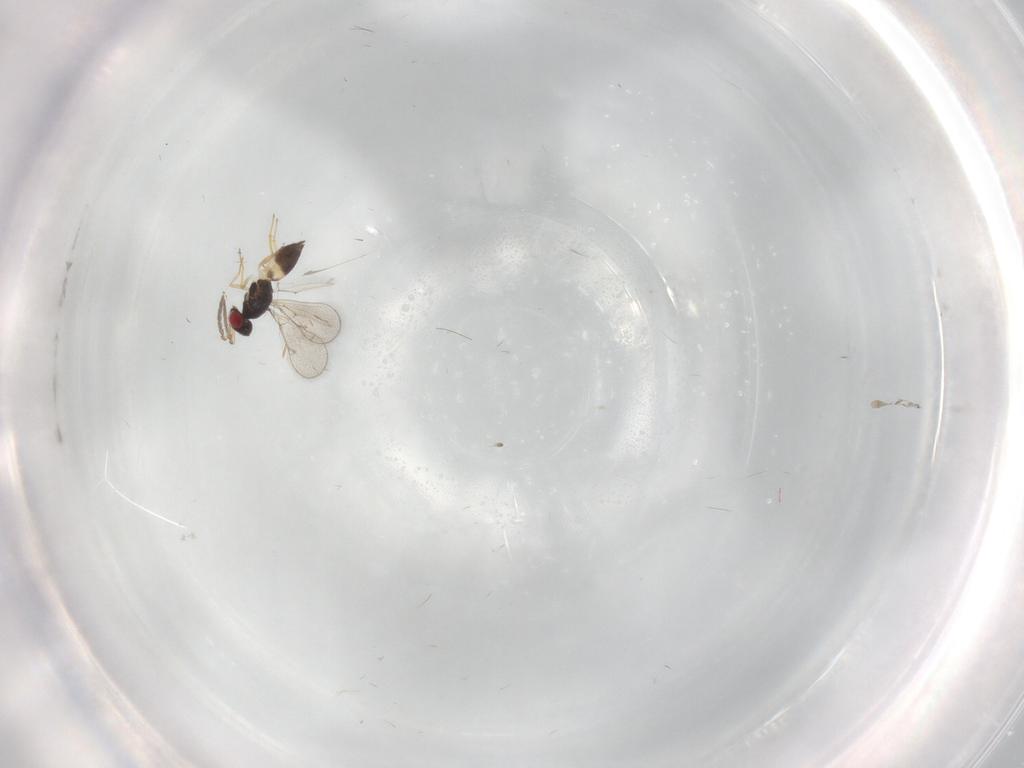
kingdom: Animalia
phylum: Arthropoda
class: Insecta
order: Hymenoptera
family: Eulophidae
